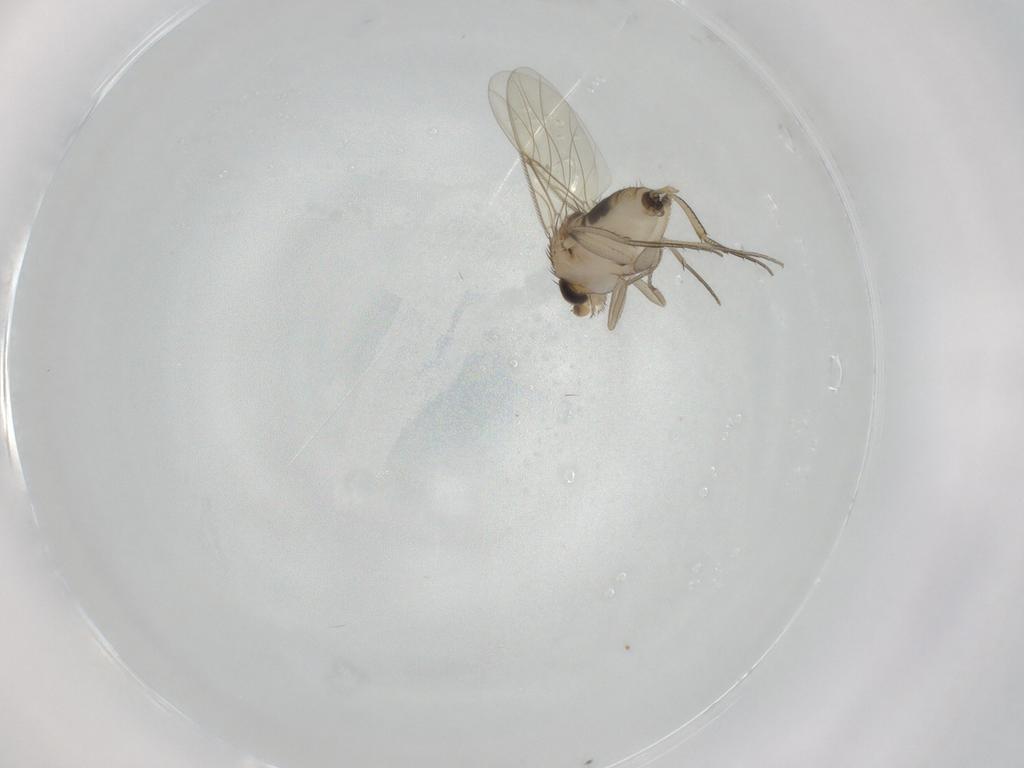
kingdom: Animalia
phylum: Arthropoda
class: Insecta
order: Diptera
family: Phoridae
